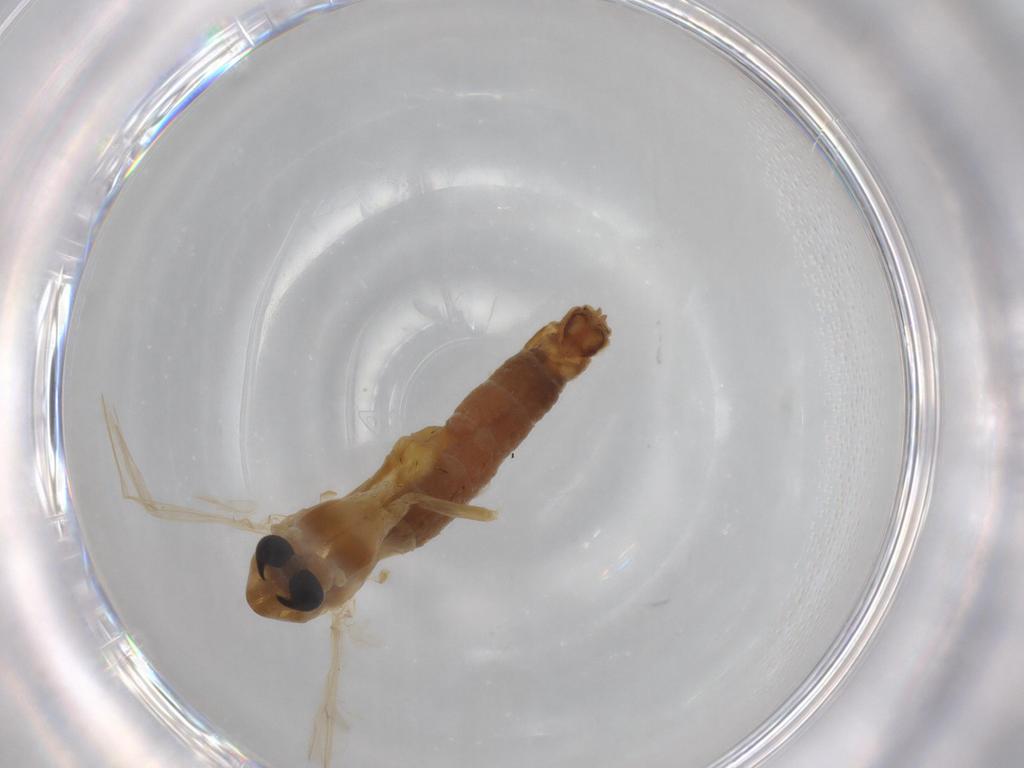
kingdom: Animalia
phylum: Arthropoda
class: Insecta
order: Diptera
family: Chironomidae
